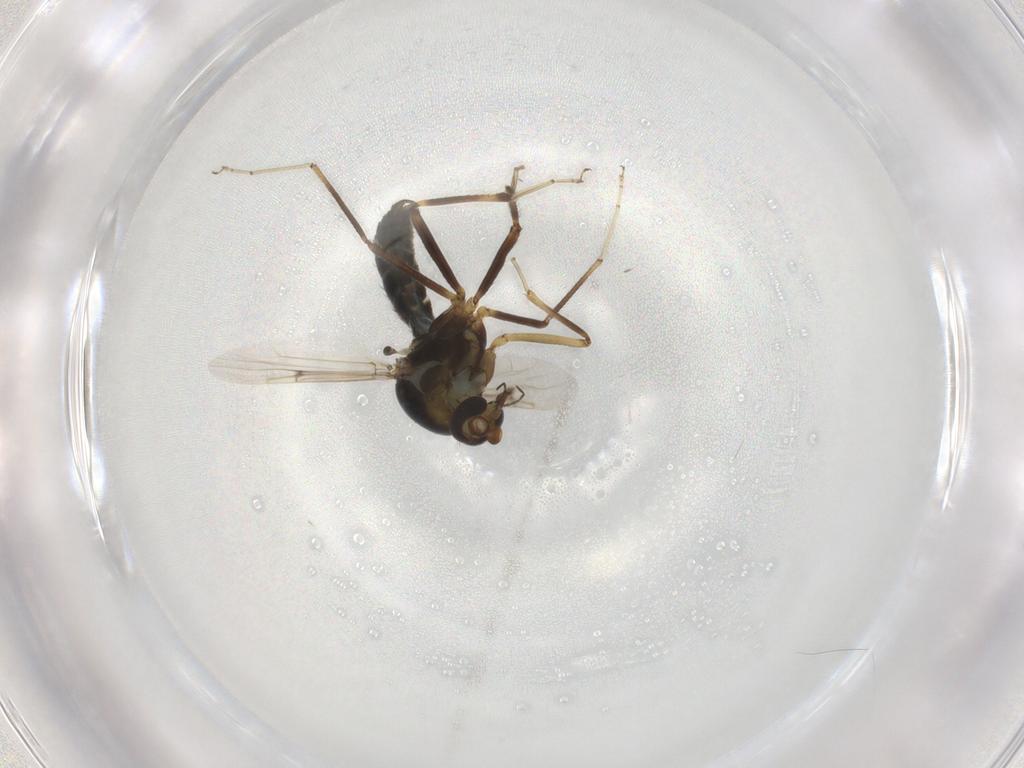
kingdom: Animalia
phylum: Arthropoda
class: Insecta
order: Diptera
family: Ceratopogonidae
